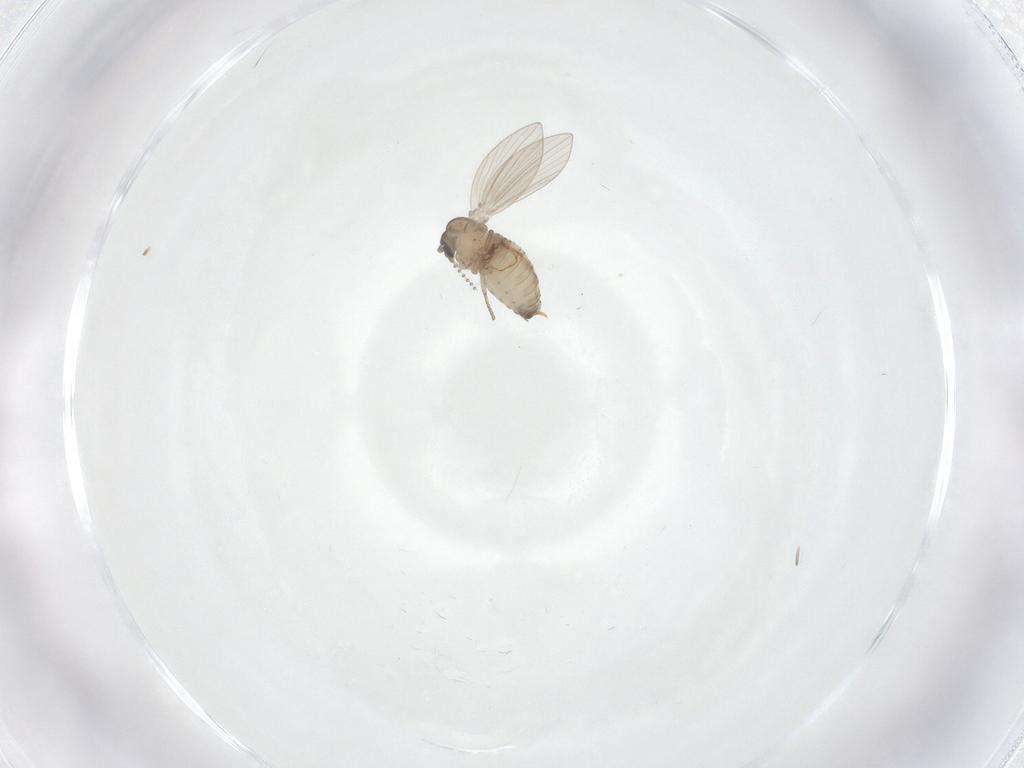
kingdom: Animalia
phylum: Arthropoda
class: Insecta
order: Diptera
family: Psychodidae
